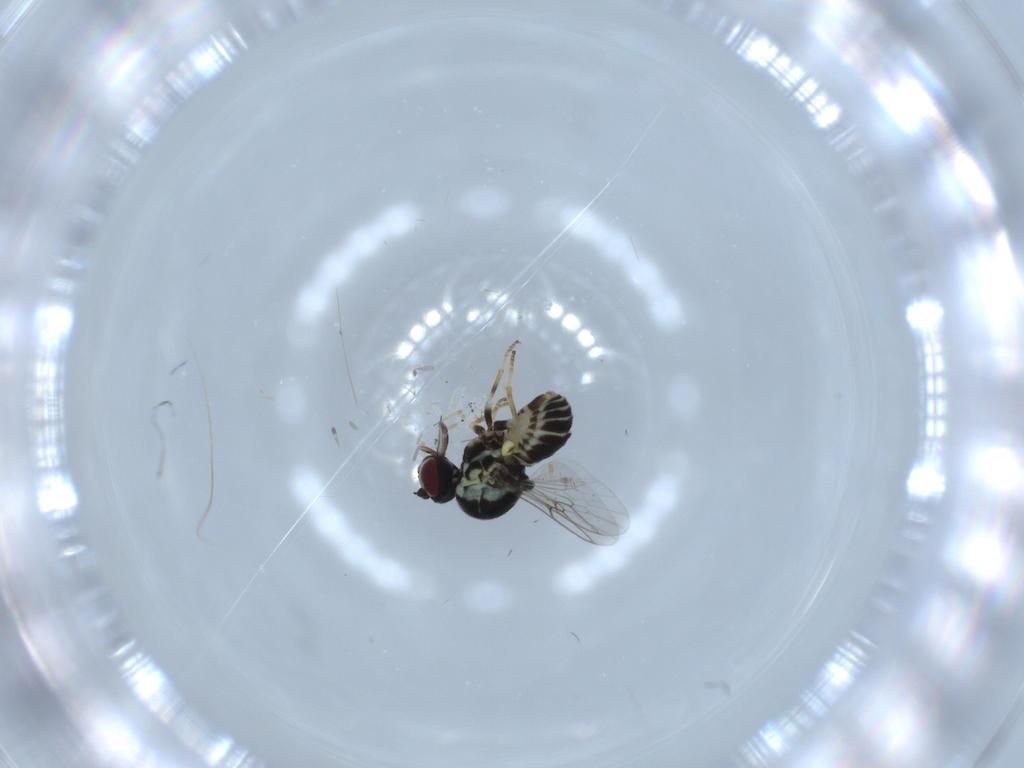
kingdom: Animalia
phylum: Arthropoda
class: Insecta
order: Diptera
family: Bombyliidae
